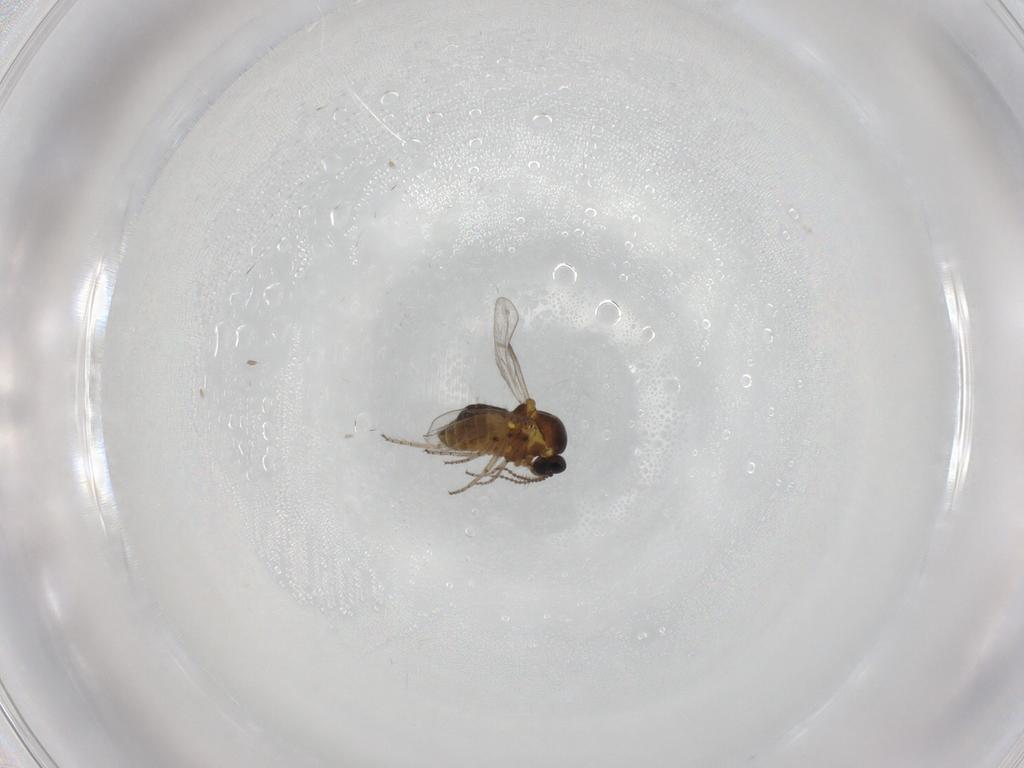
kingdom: Animalia
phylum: Arthropoda
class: Insecta
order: Diptera
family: Ceratopogonidae
